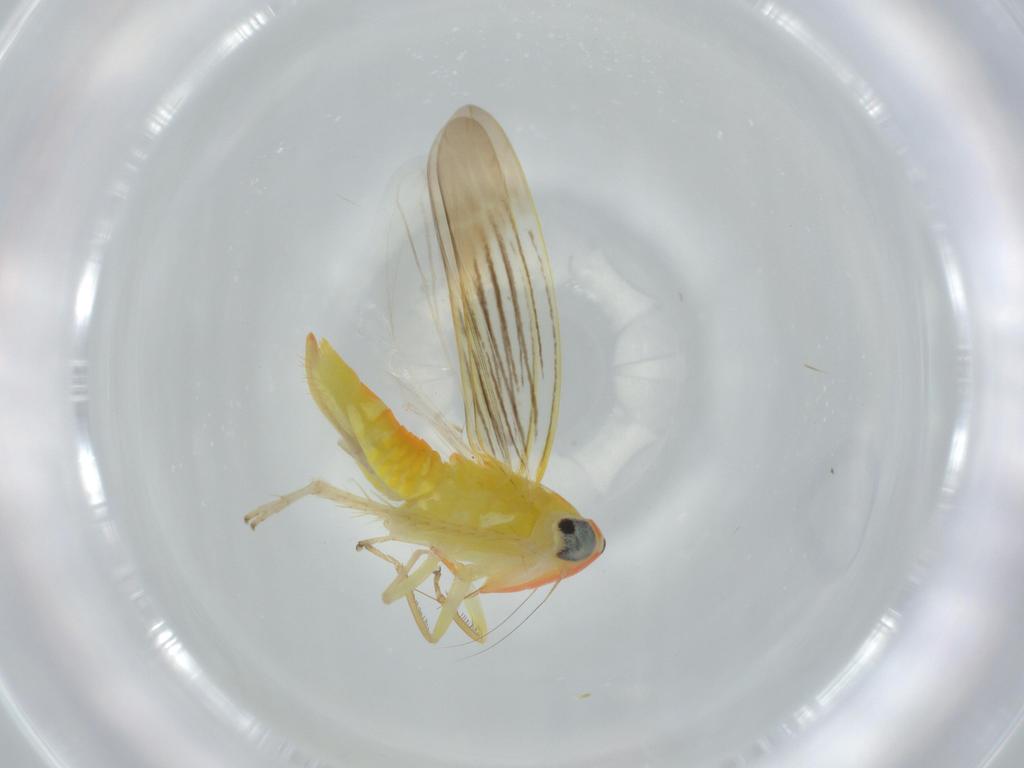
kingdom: Animalia
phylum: Arthropoda
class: Insecta
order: Hemiptera
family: Cicadellidae
